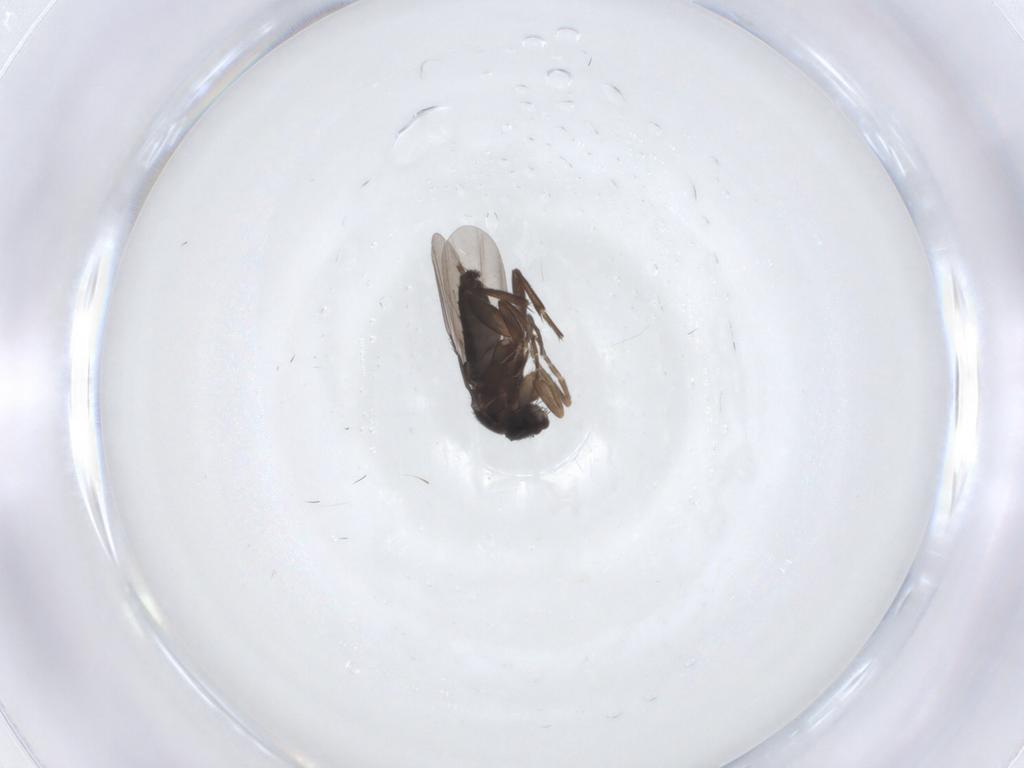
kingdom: Animalia
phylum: Arthropoda
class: Insecta
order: Diptera
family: Phoridae
